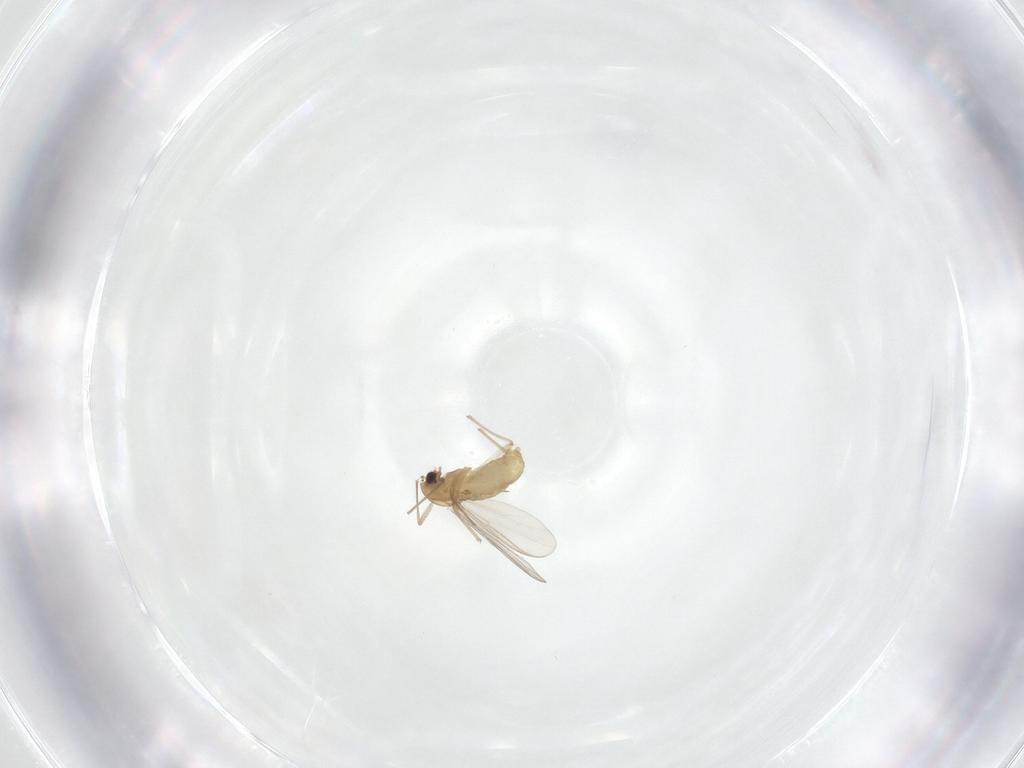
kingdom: Animalia
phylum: Arthropoda
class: Insecta
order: Diptera
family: Chironomidae
